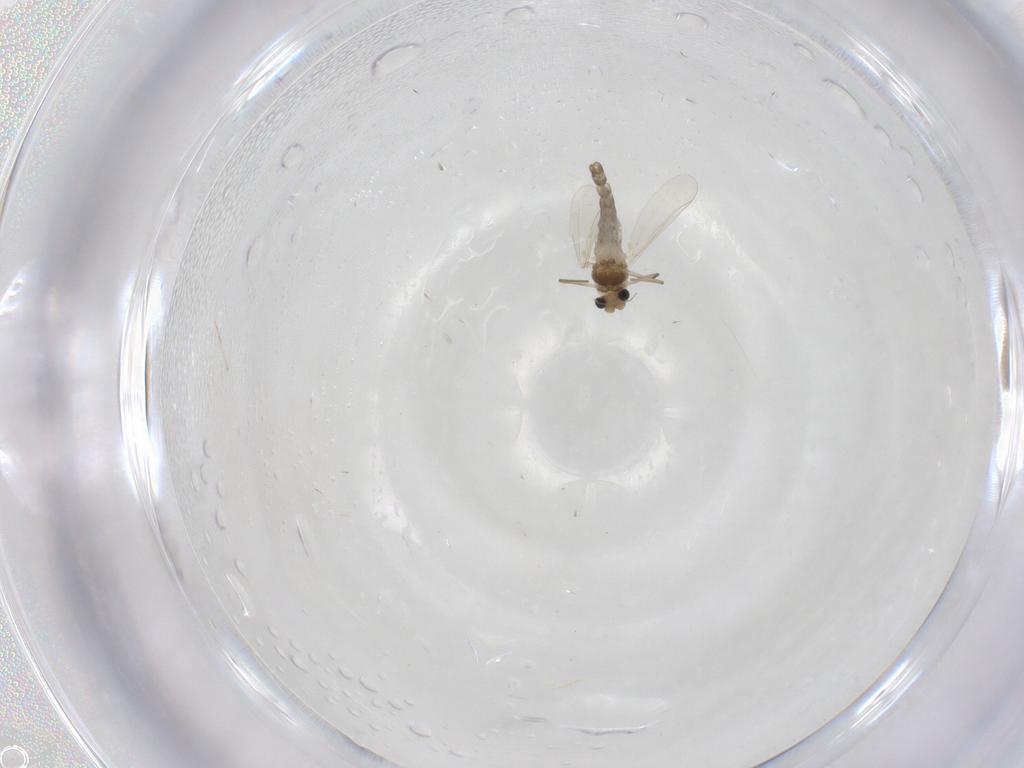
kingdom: Animalia
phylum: Arthropoda
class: Insecta
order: Diptera
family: Chironomidae
